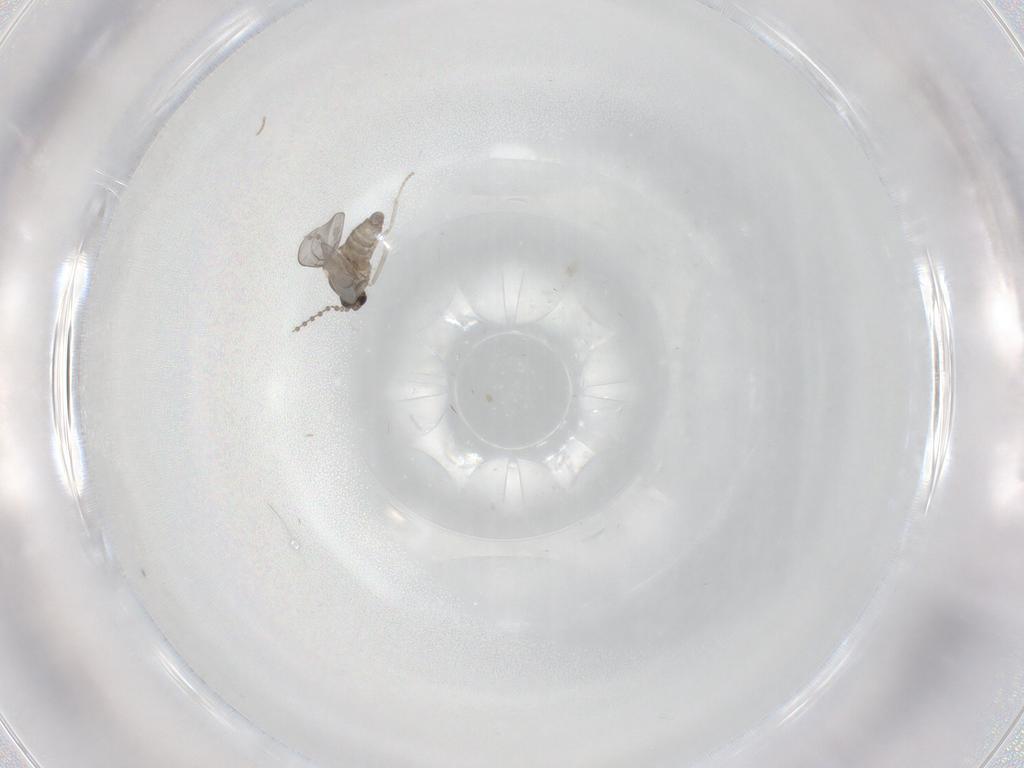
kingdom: Animalia
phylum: Arthropoda
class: Insecta
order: Diptera
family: Cecidomyiidae
